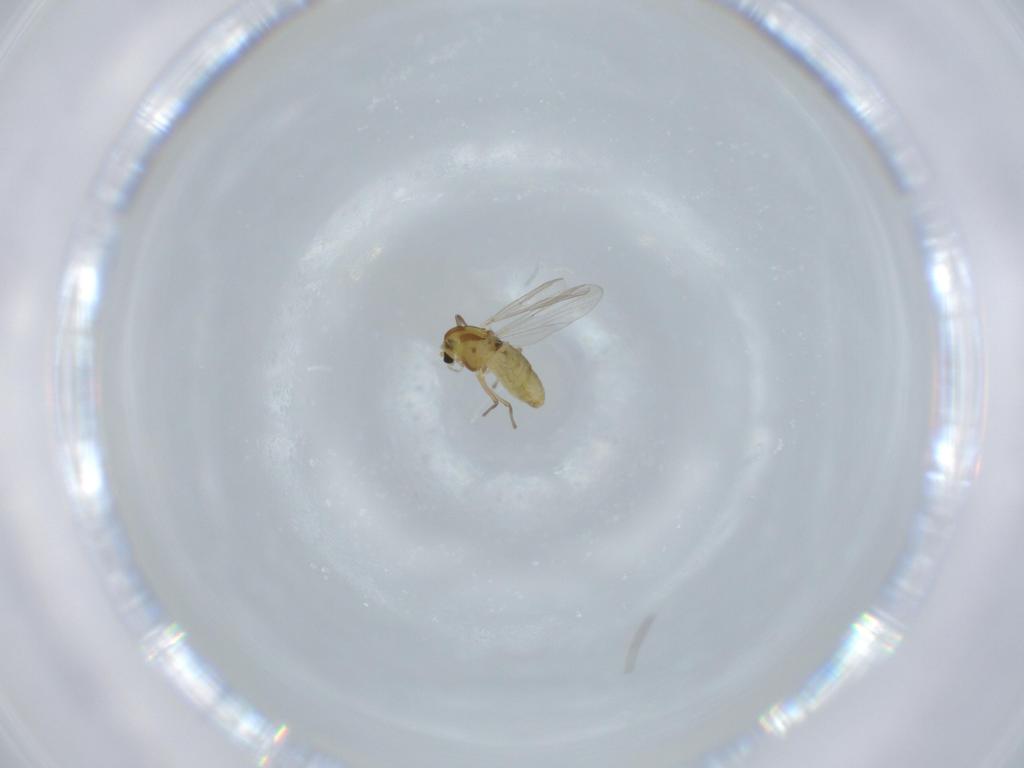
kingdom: Animalia
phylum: Arthropoda
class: Insecta
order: Diptera
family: Chironomidae
